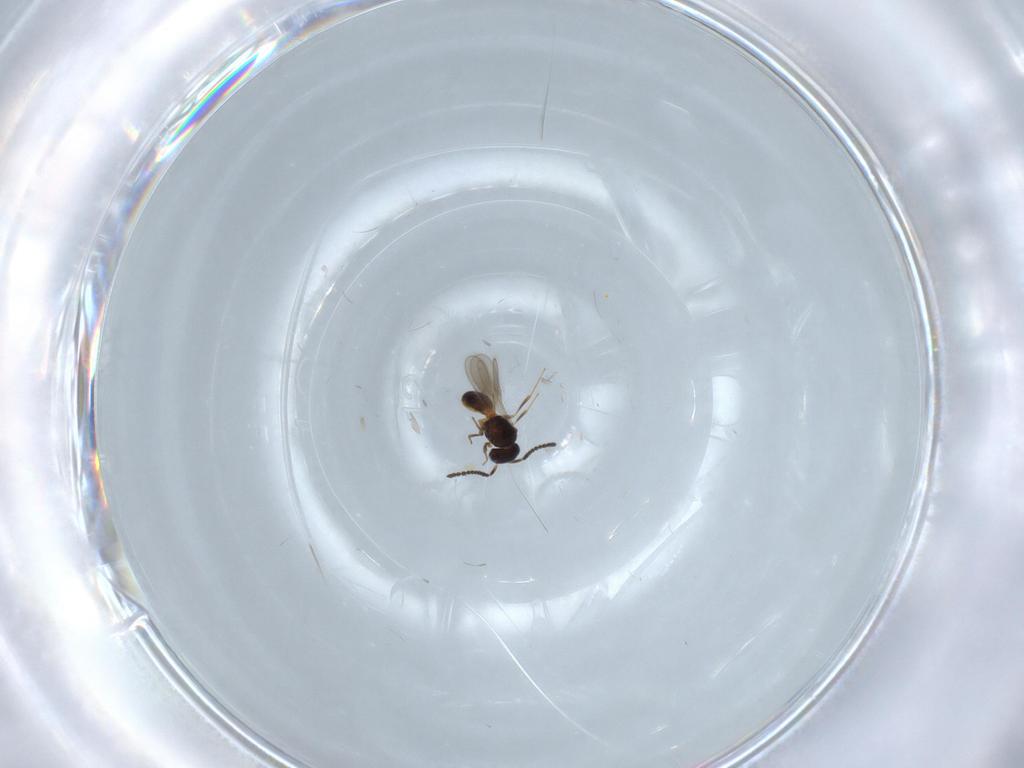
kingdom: Animalia
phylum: Arthropoda
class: Insecta
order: Hymenoptera
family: Scelionidae
